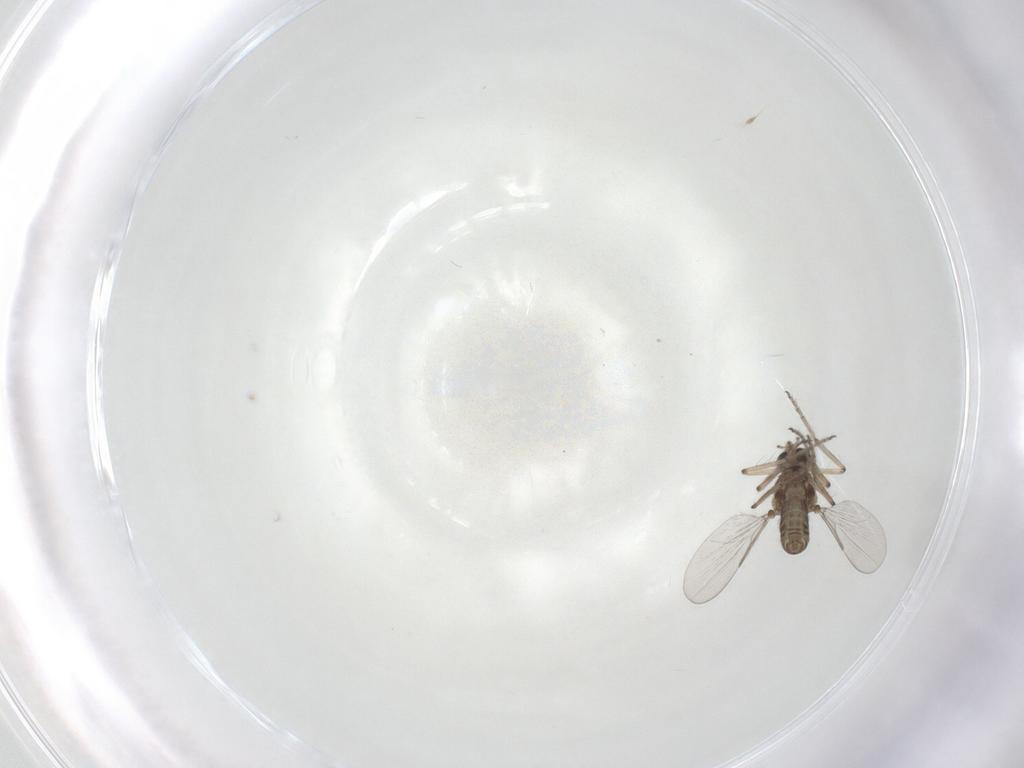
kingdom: Animalia
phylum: Arthropoda
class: Insecta
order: Diptera
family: Ceratopogonidae
